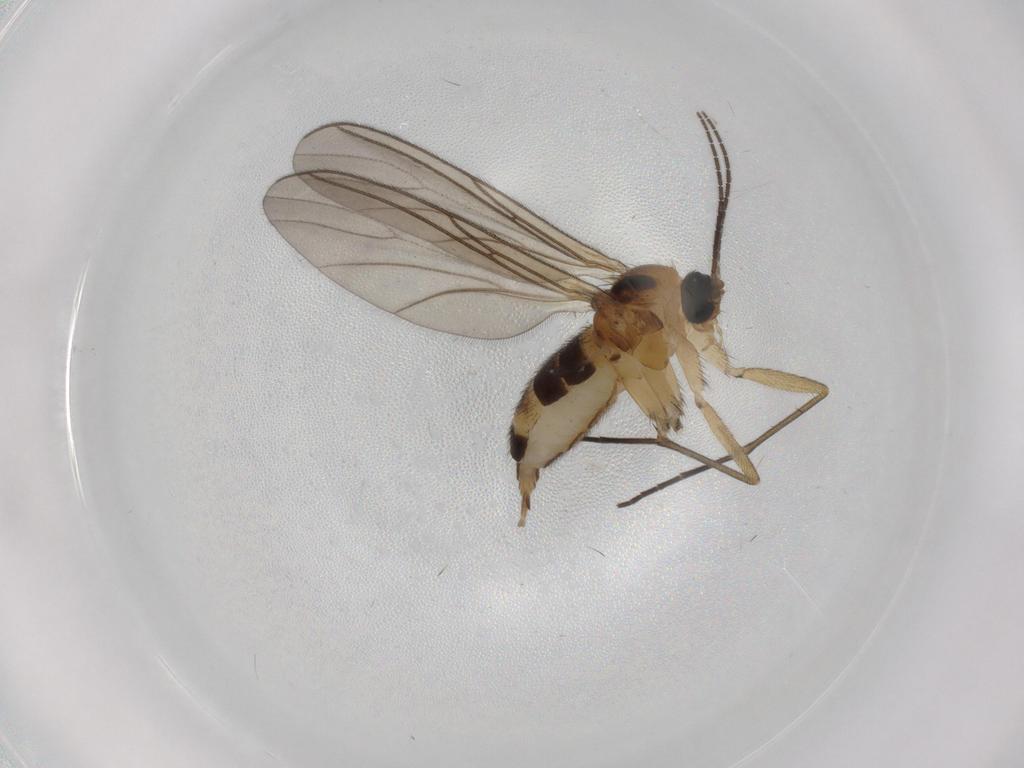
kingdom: Animalia
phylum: Arthropoda
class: Insecta
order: Diptera
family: Sciaridae
